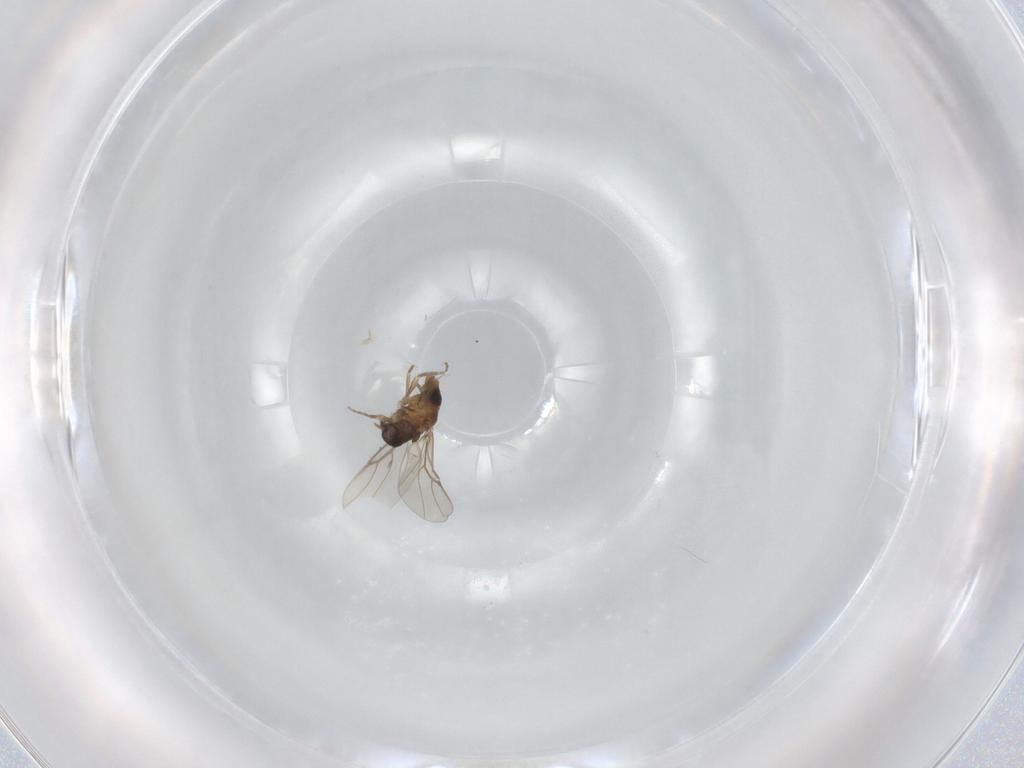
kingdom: Animalia
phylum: Arthropoda
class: Insecta
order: Diptera
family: Phoridae
